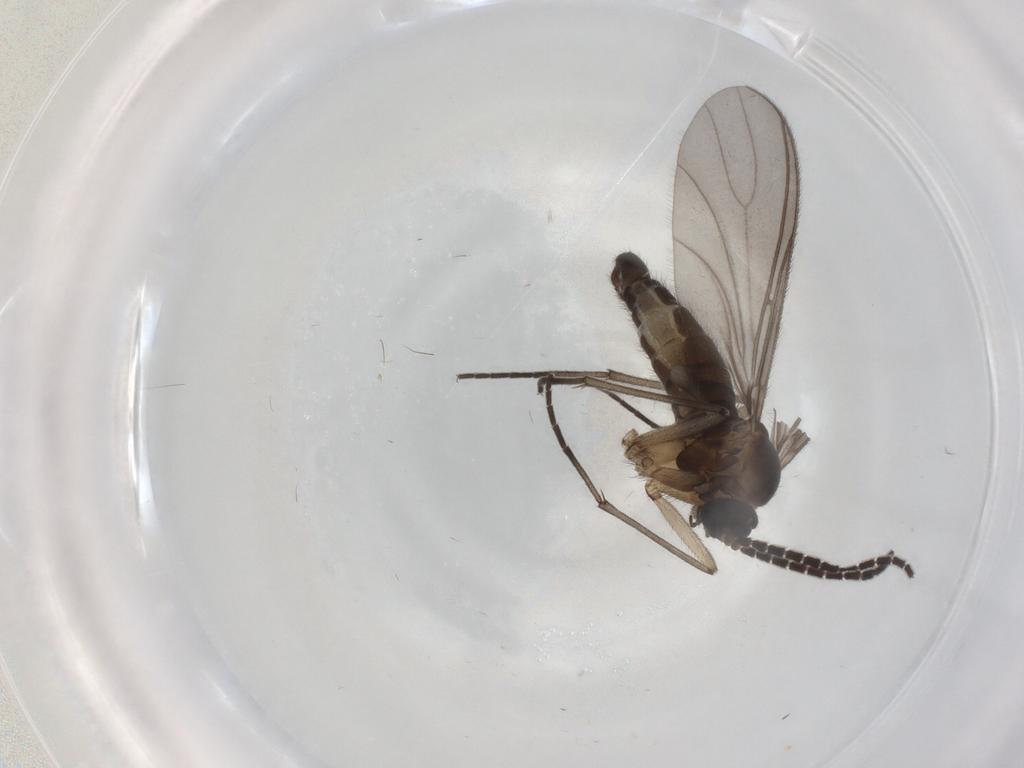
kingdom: Animalia
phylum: Arthropoda
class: Insecta
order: Diptera
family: Sciaridae
